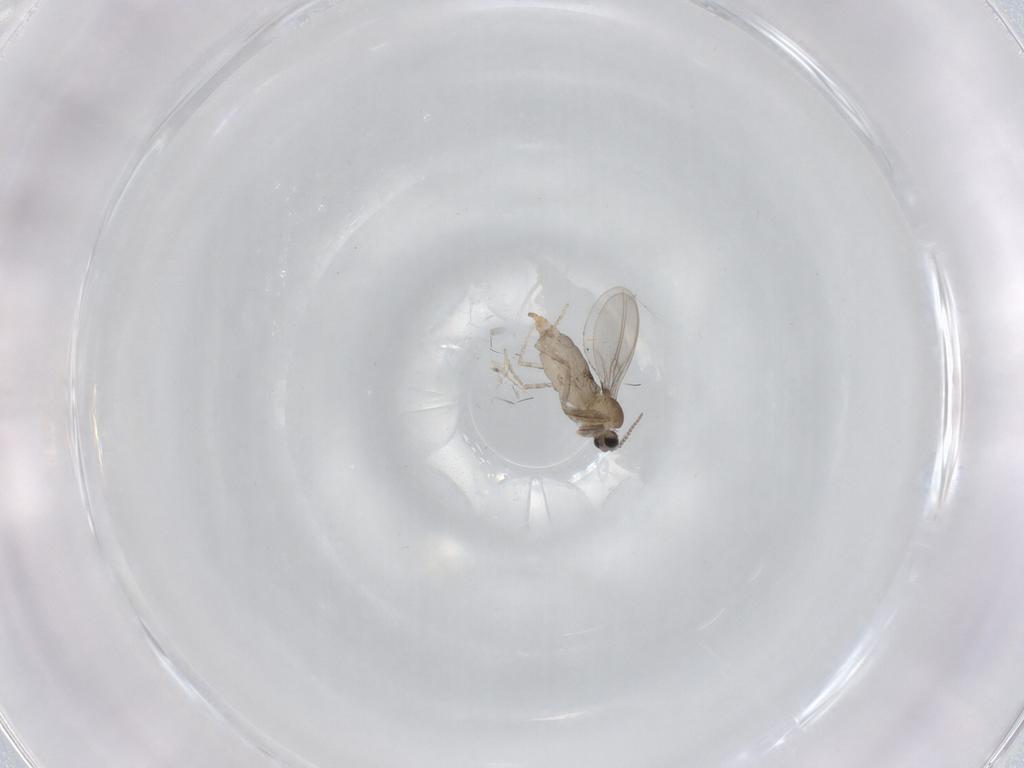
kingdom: Animalia
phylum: Arthropoda
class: Insecta
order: Diptera
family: Cecidomyiidae
